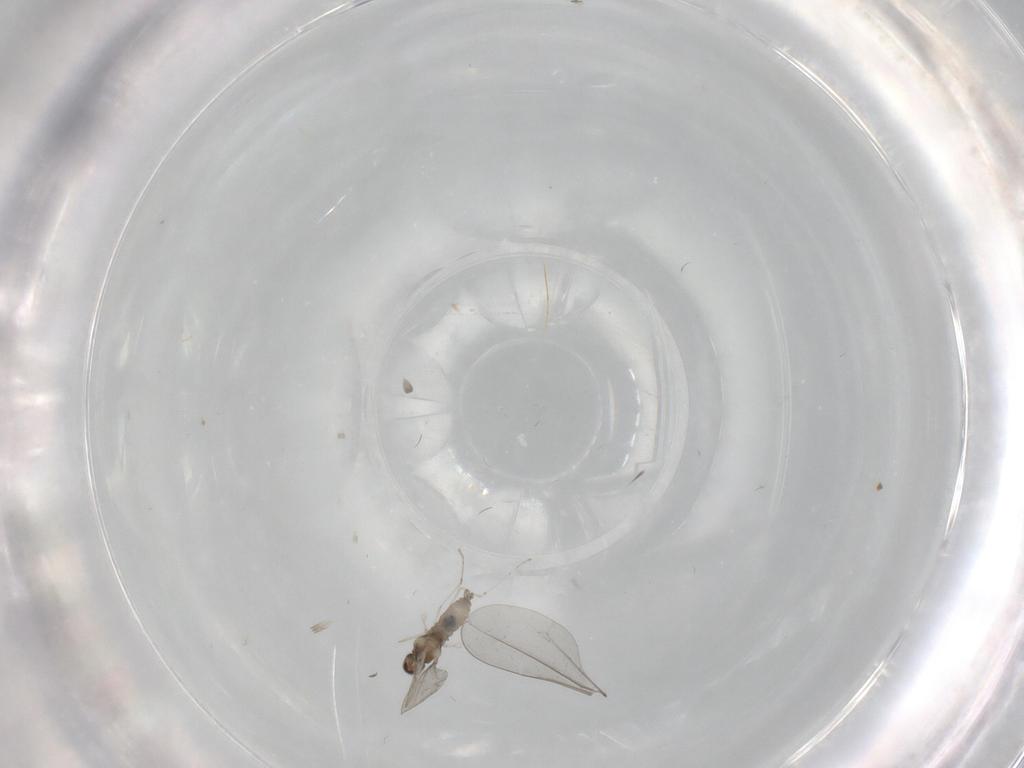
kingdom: Animalia
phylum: Arthropoda
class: Insecta
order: Diptera
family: Cecidomyiidae
